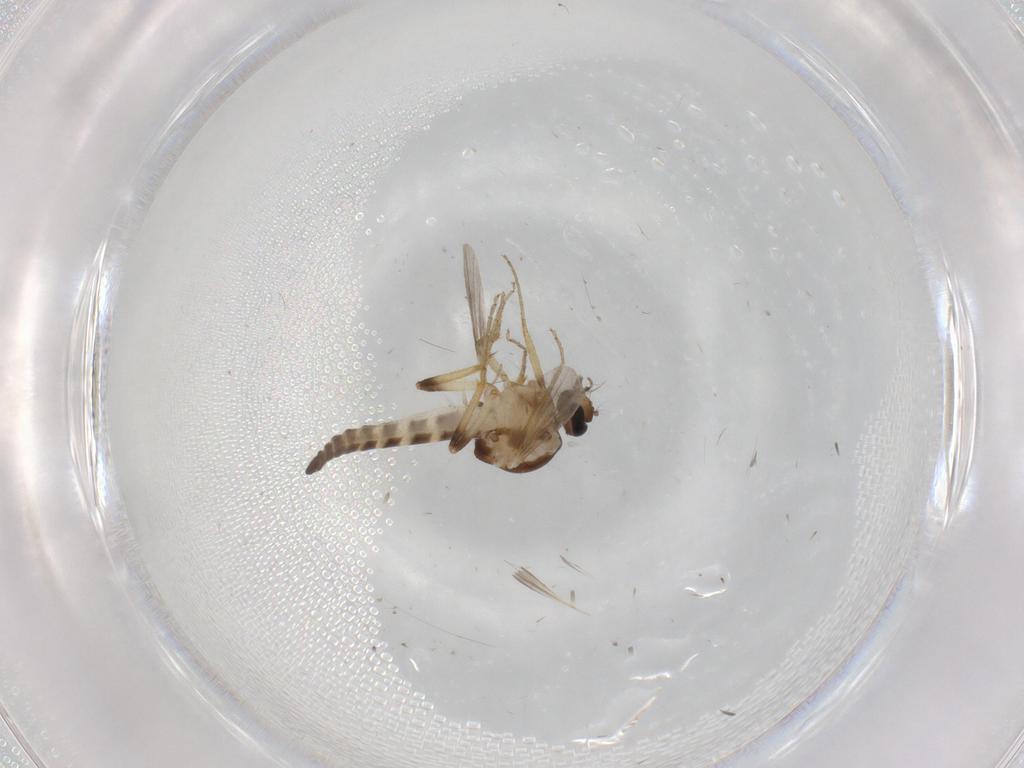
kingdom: Animalia
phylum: Arthropoda
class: Insecta
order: Diptera
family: Ceratopogonidae
